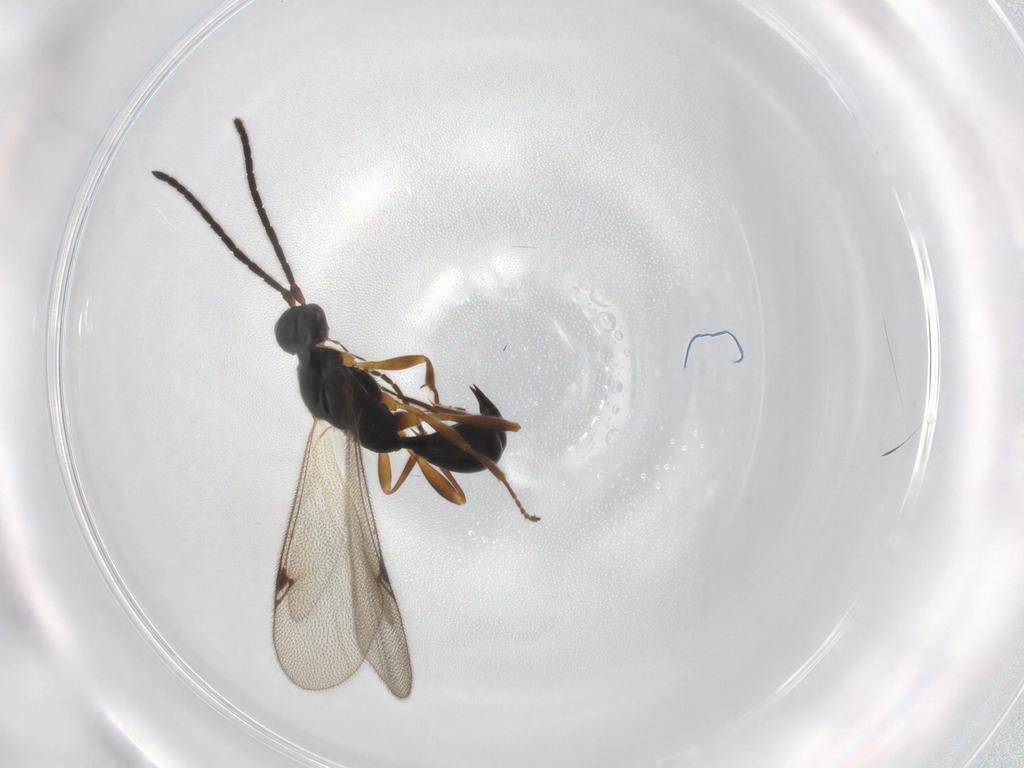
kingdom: Animalia
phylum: Arthropoda
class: Insecta
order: Hymenoptera
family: Proctotrupidae
